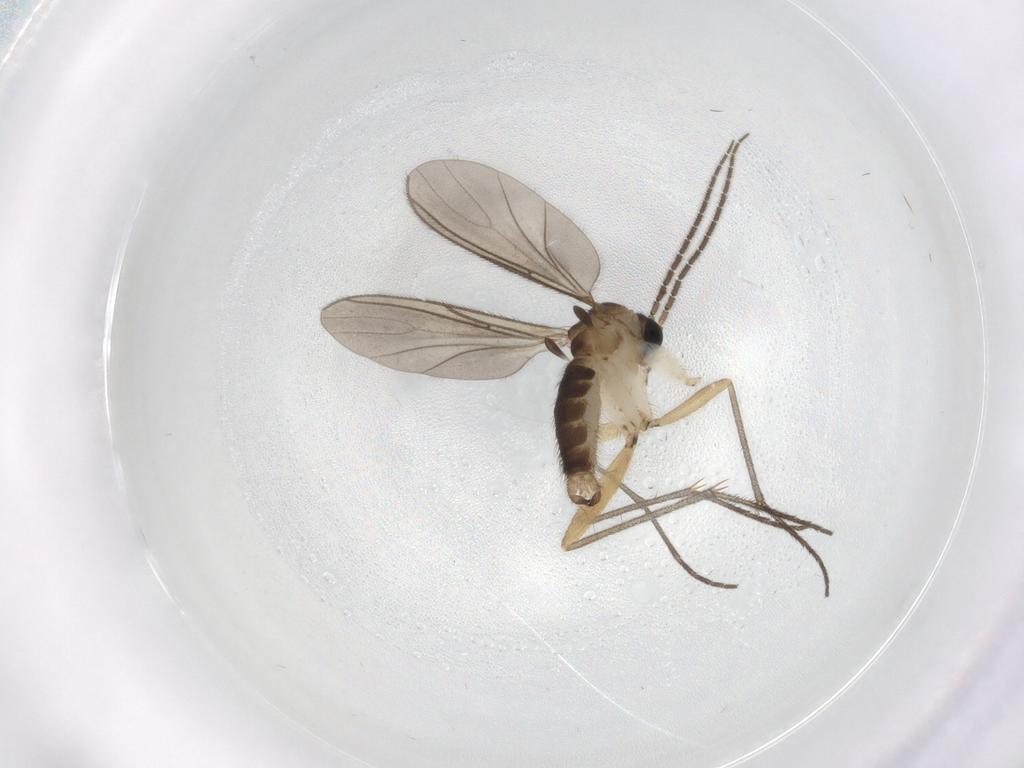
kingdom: Animalia
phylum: Arthropoda
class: Insecta
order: Diptera
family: Sciaridae
